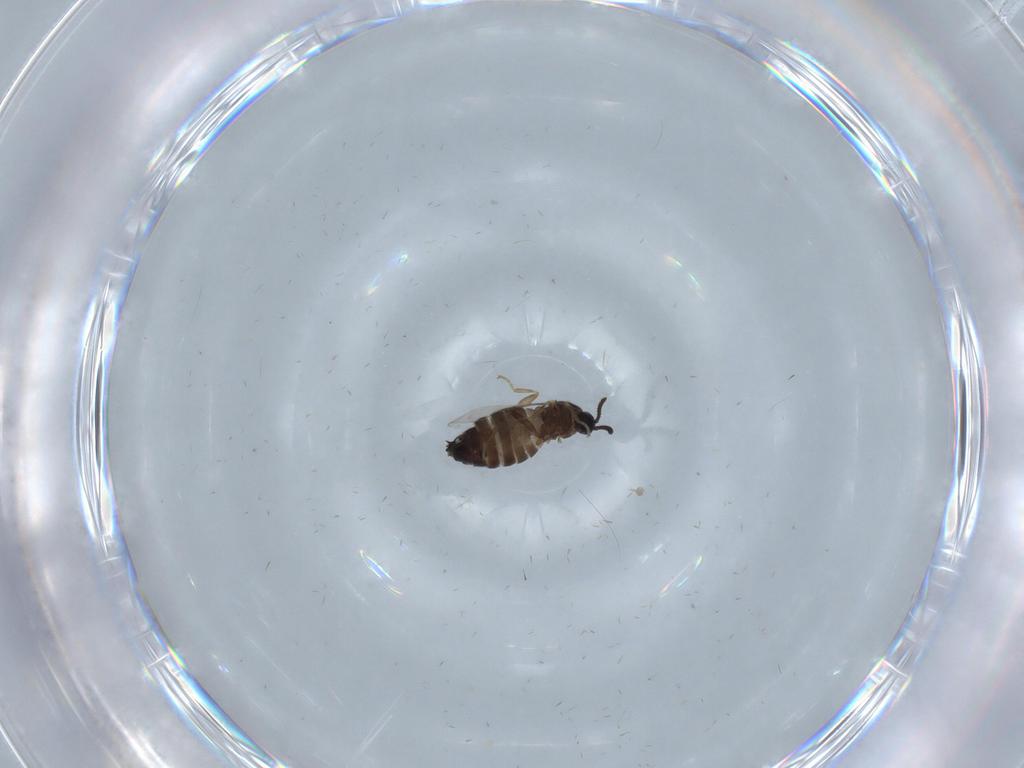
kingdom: Animalia
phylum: Arthropoda
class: Insecta
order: Diptera
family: Scatopsidae
